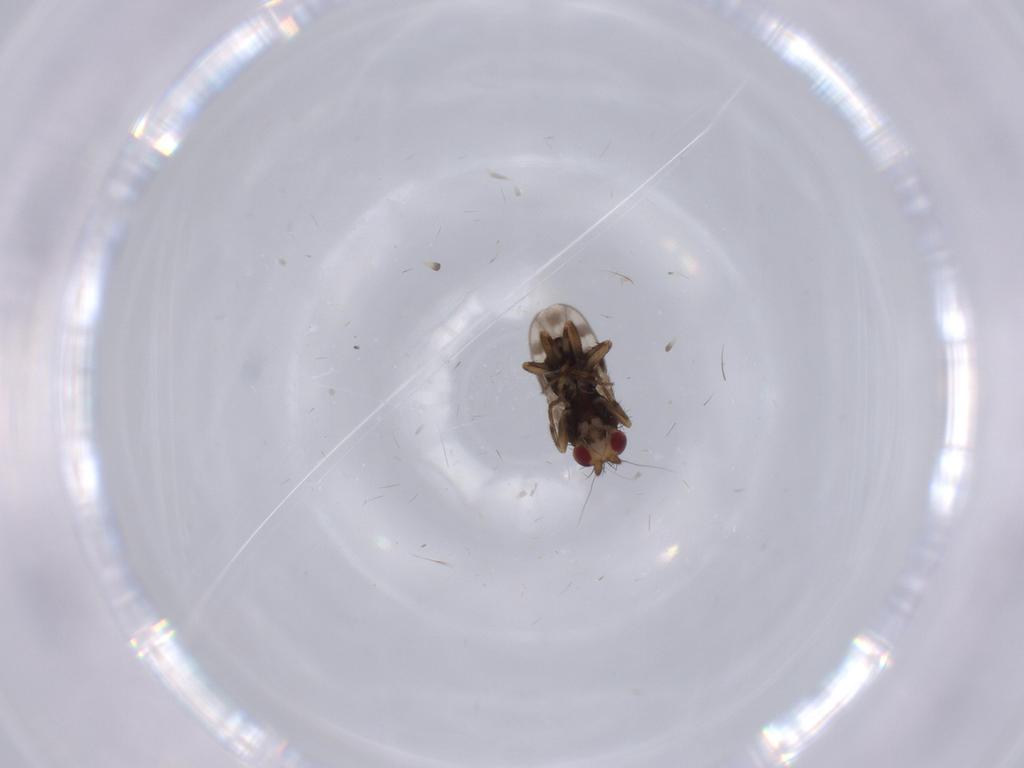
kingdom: Animalia
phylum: Arthropoda
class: Insecta
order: Diptera
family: Sphaeroceridae
